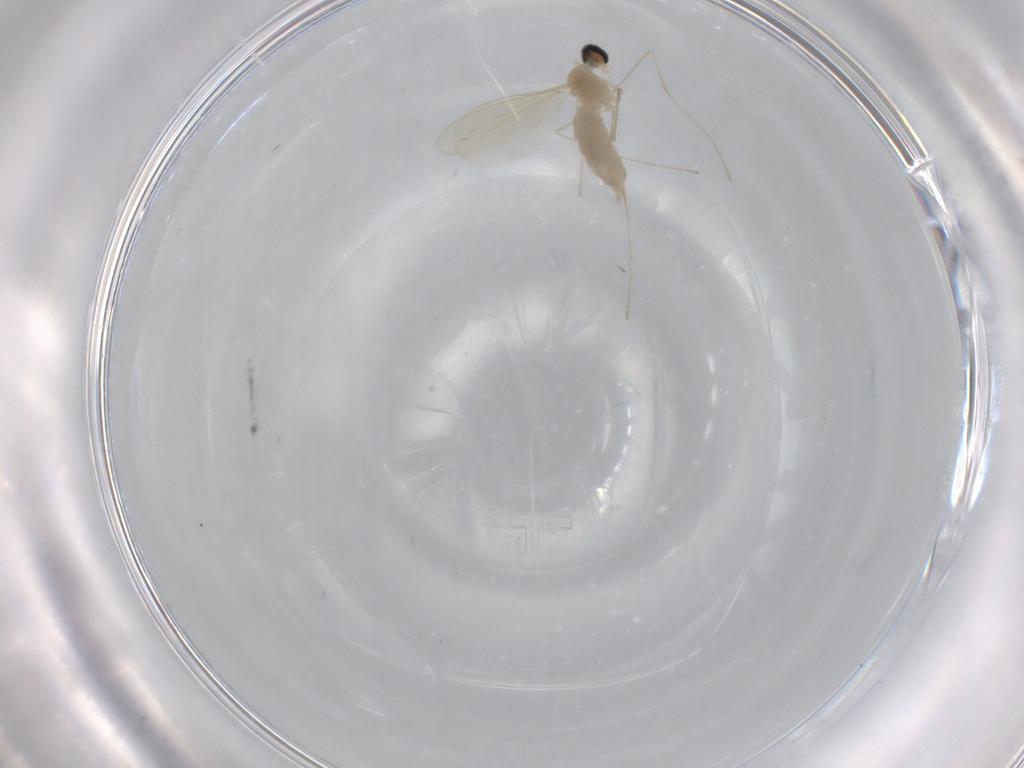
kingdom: Animalia
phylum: Arthropoda
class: Insecta
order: Diptera
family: Cecidomyiidae
